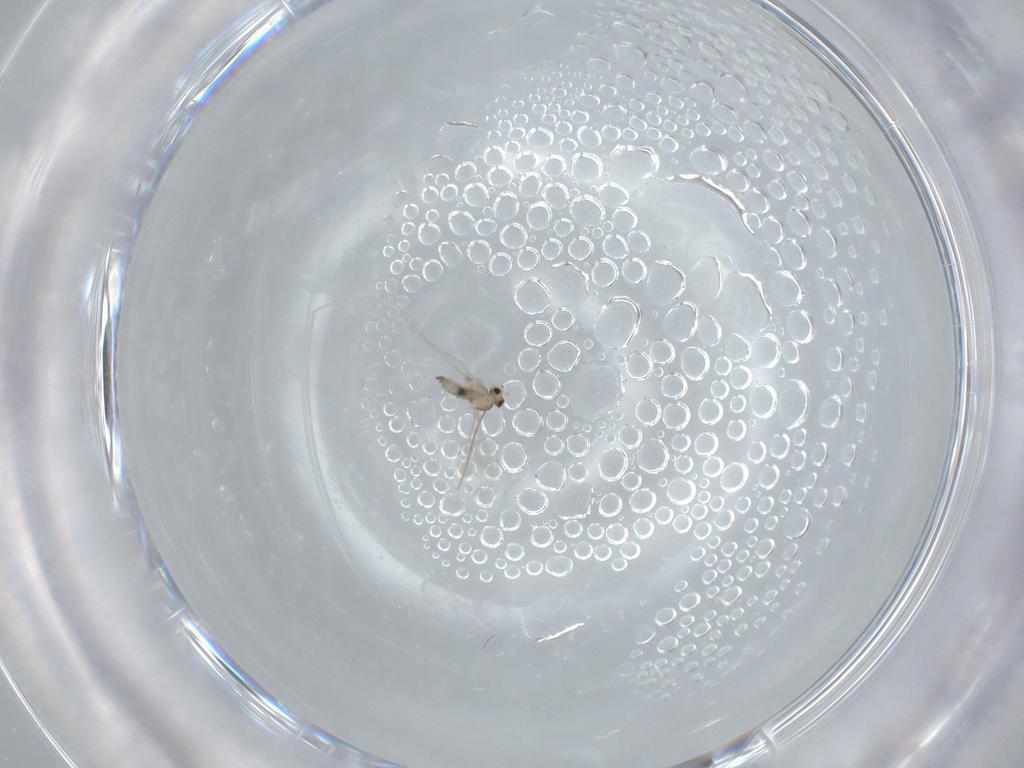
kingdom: Animalia
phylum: Arthropoda
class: Insecta
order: Diptera
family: Cecidomyiidae
